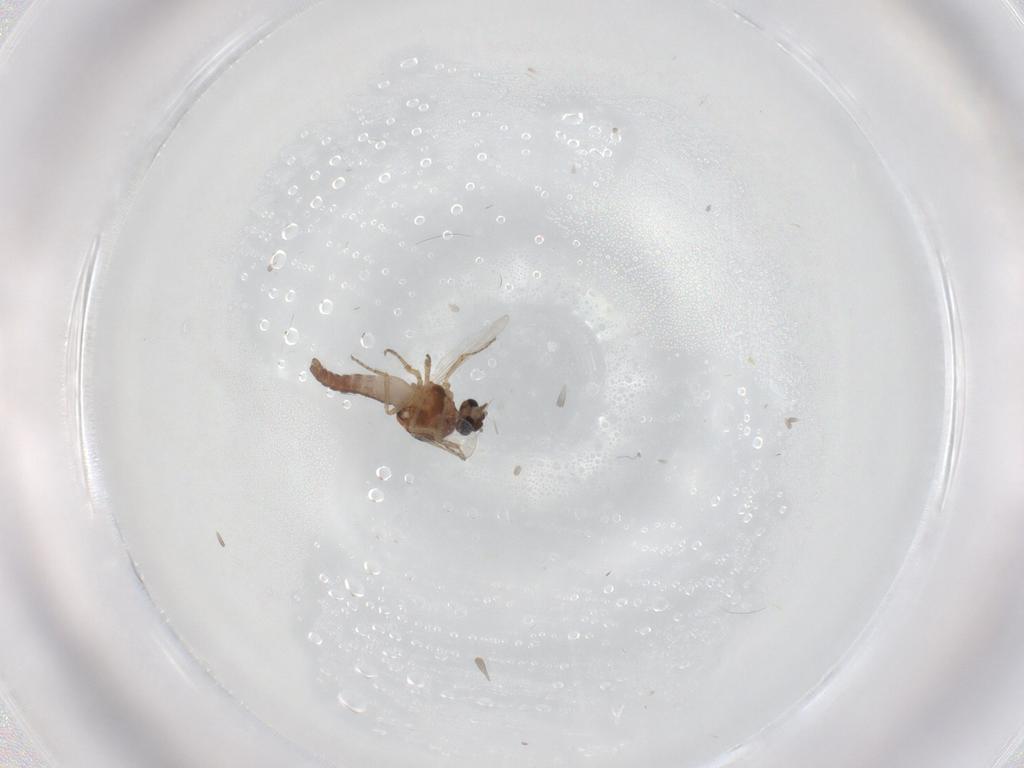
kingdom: Animalia
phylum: Arthropoda
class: Insecta
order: Diptera
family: Ceratopogonidae
